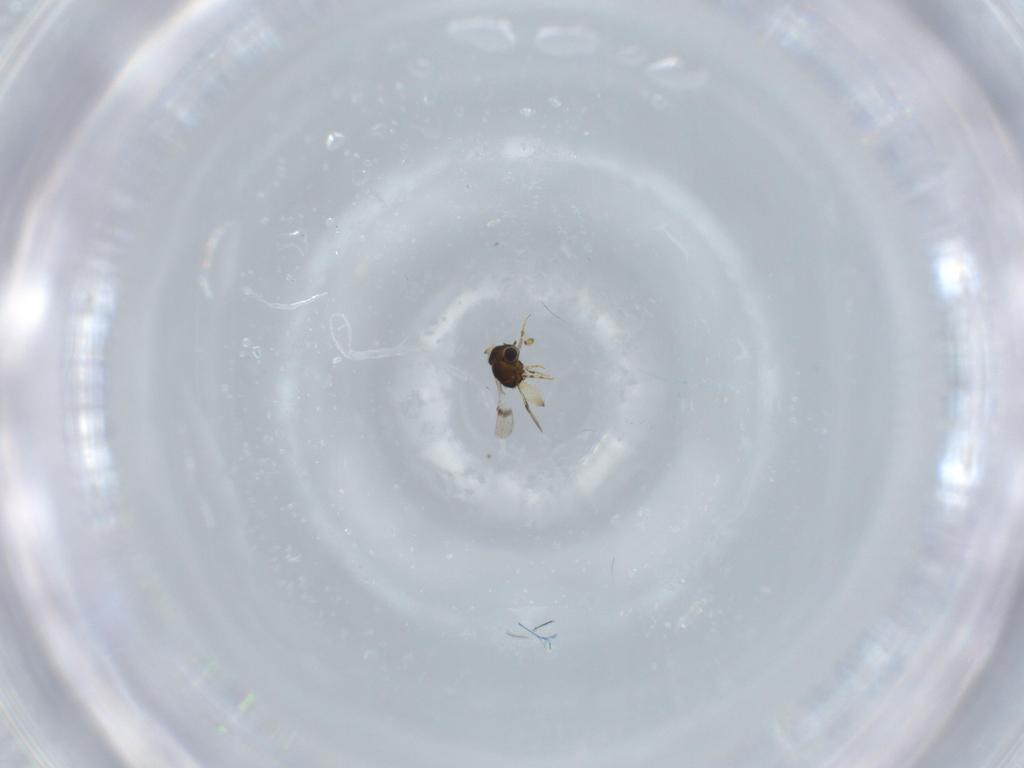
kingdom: Animalia
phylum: Arthropoda
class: Insecta
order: Hymenoptera
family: Scelionidae
